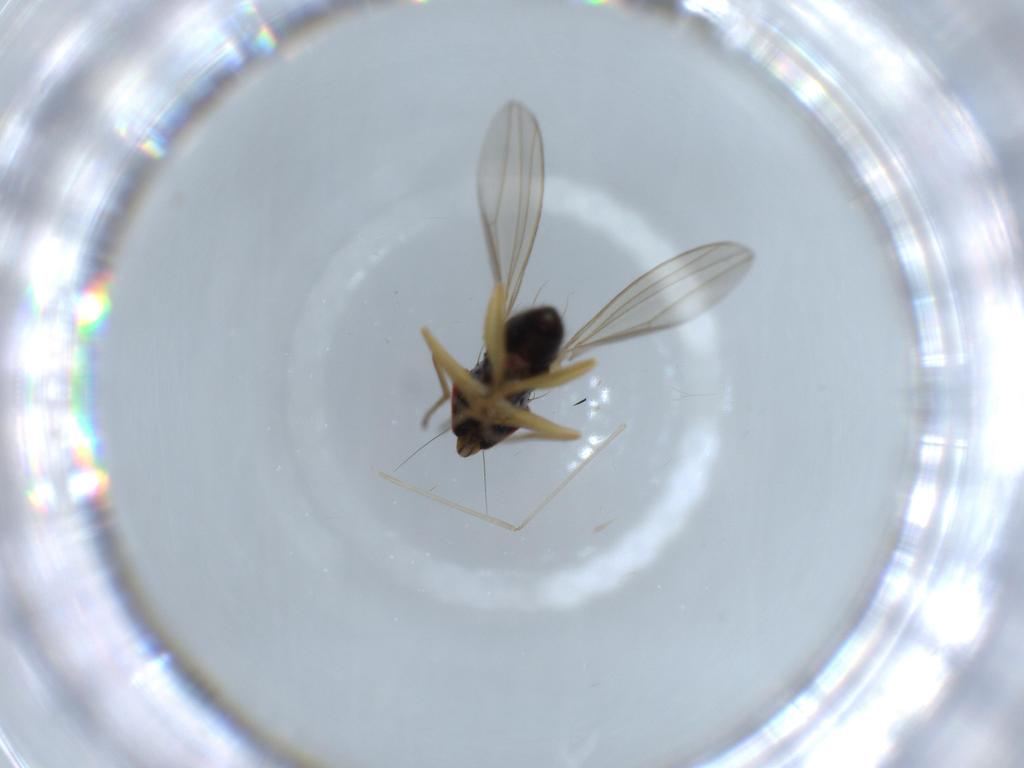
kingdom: Animalia
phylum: Arthropoda
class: Insecta
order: Diptera
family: Dolichopodidae
